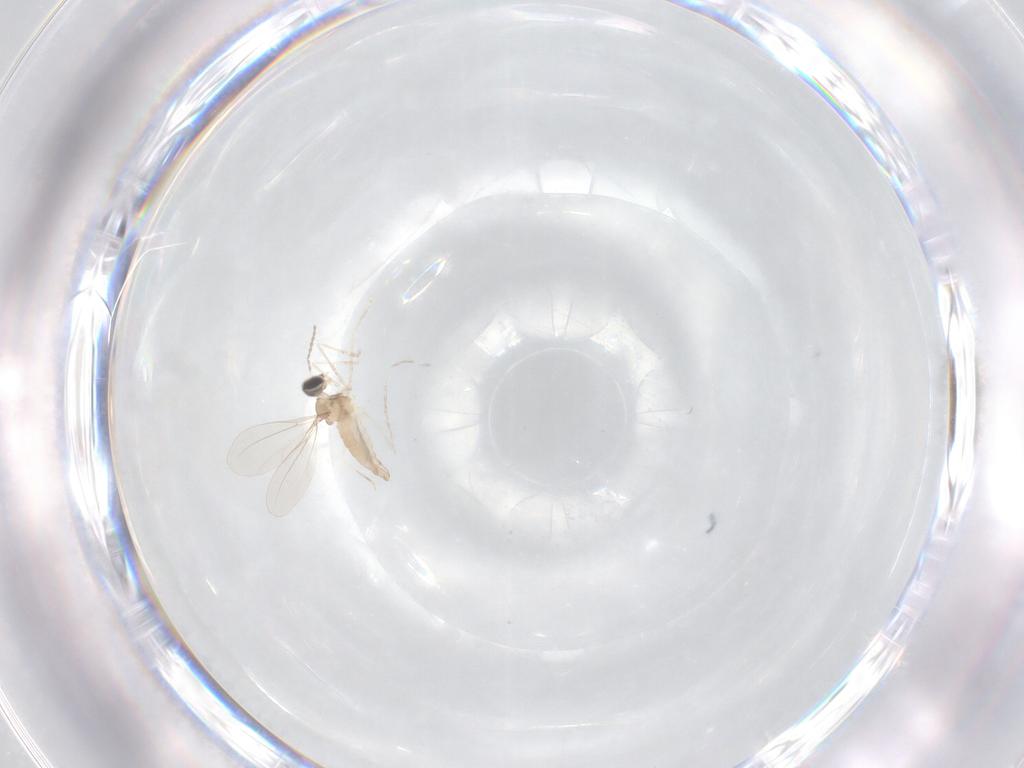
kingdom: Animalia
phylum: Arthropoda
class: Insecta
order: Diptera
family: Cecidomyiidae
